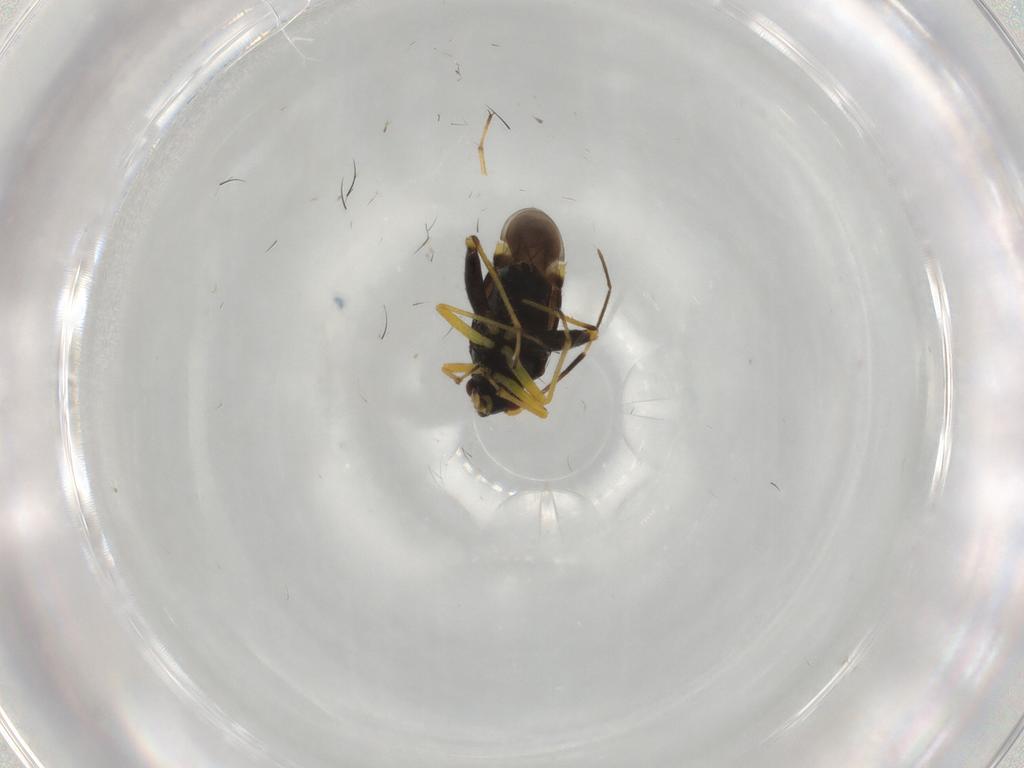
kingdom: Animalia
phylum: Arthropoda
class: Insecta
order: Hemiptera
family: Miridae
